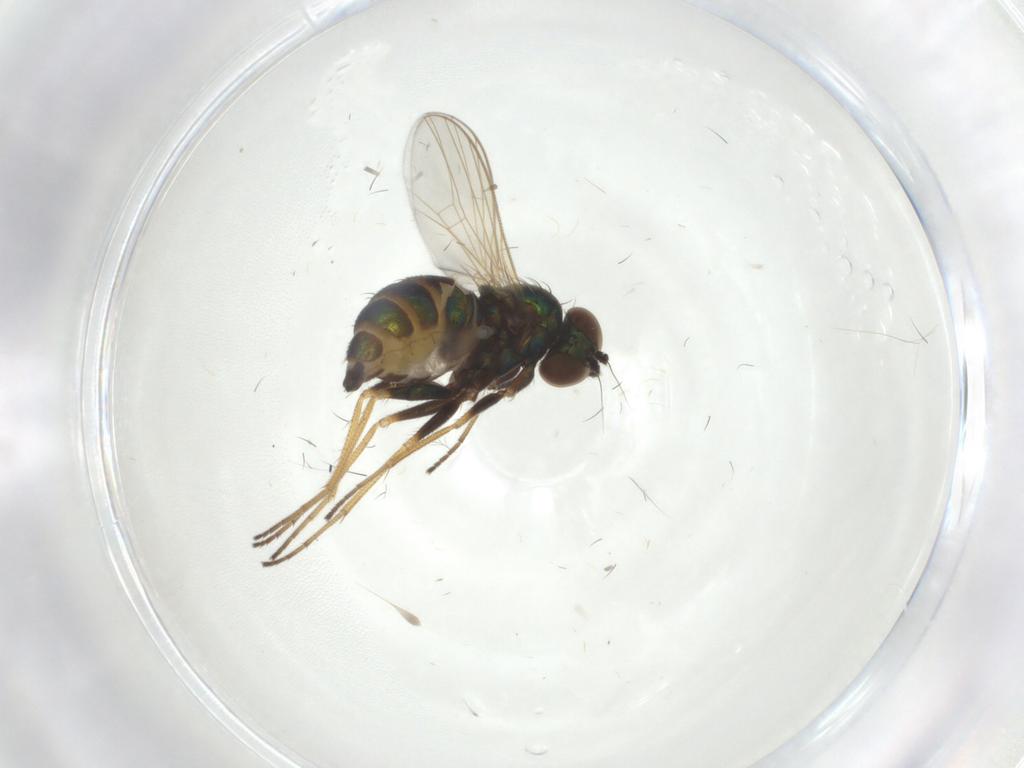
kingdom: Animalia
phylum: Arthropoda
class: Insecta
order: Diptera
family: Dolichopodidae
